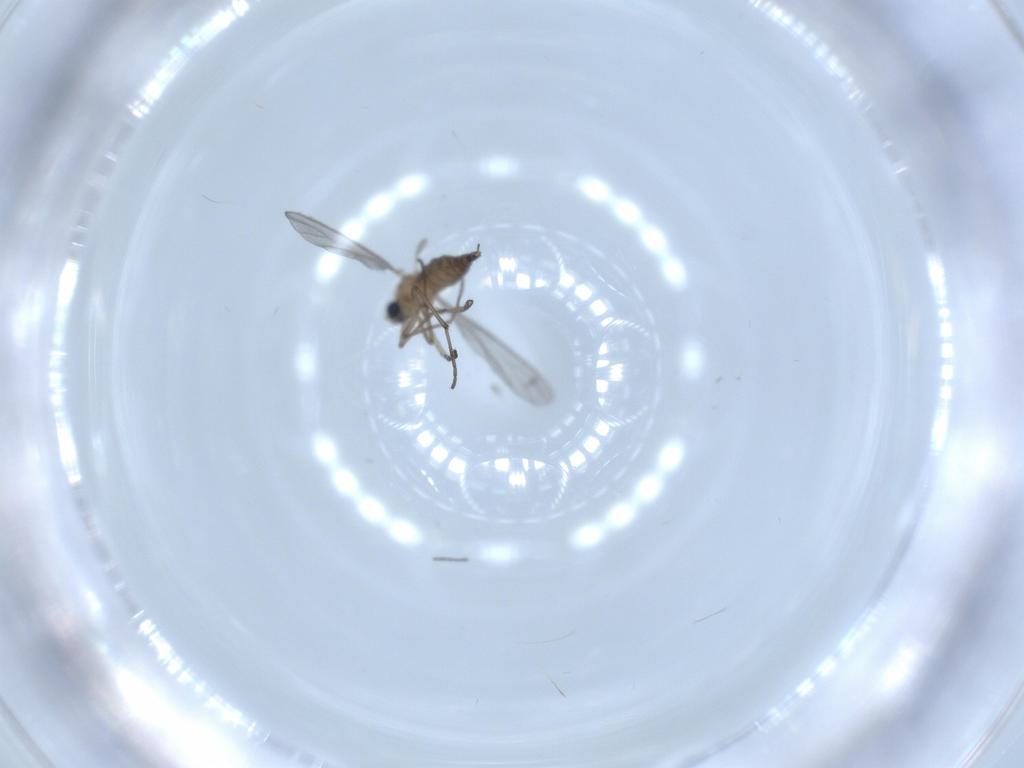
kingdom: Animalia
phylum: Arthropoda
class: Insecta
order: Diptera
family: Sciaridae
